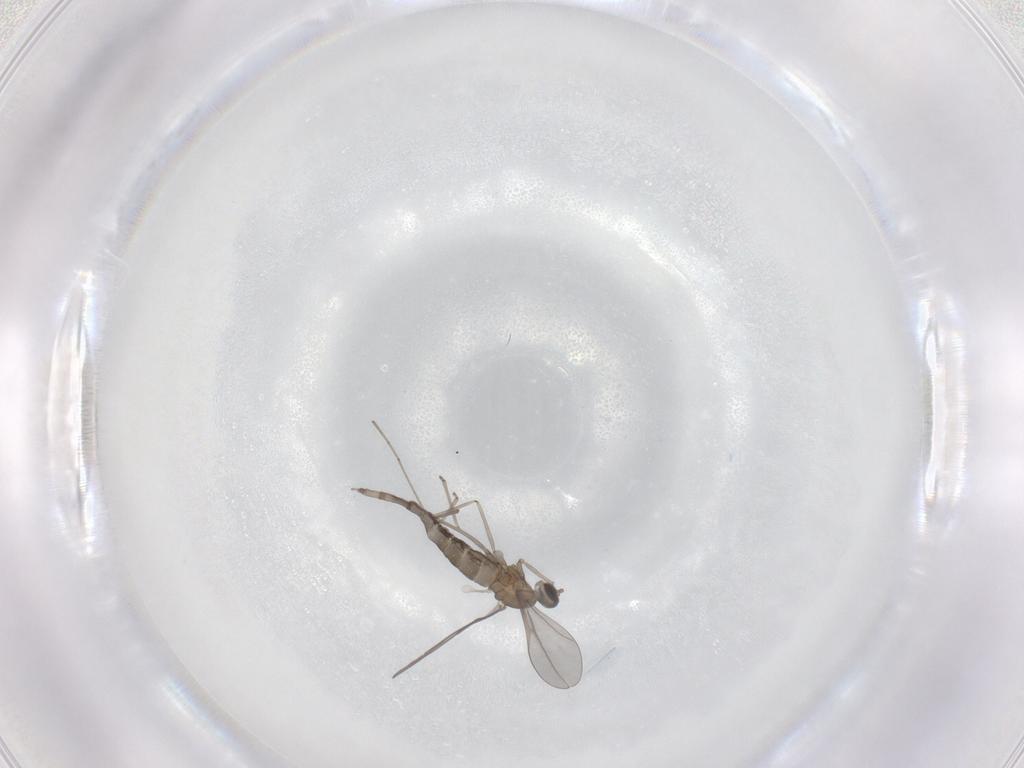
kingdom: Animalia
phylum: Arthropoda
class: Insecta
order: Diptera
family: Cecidomyiidae
